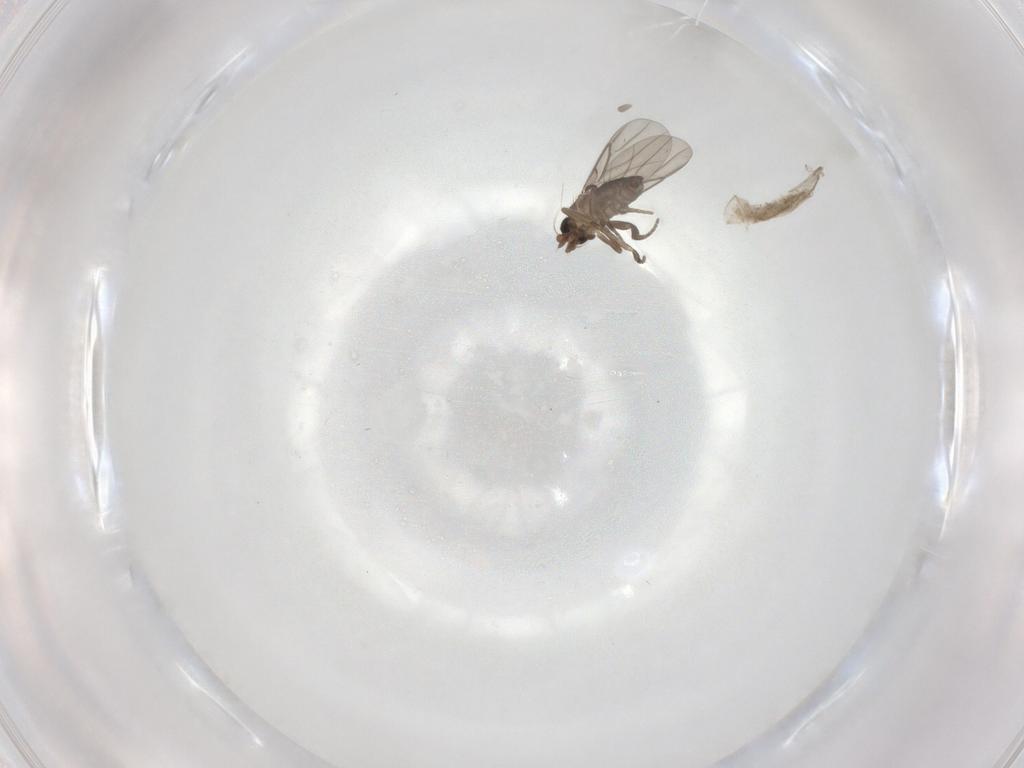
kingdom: Animalia
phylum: Arthropoda
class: Insecta
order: Diptera
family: Phoridae
